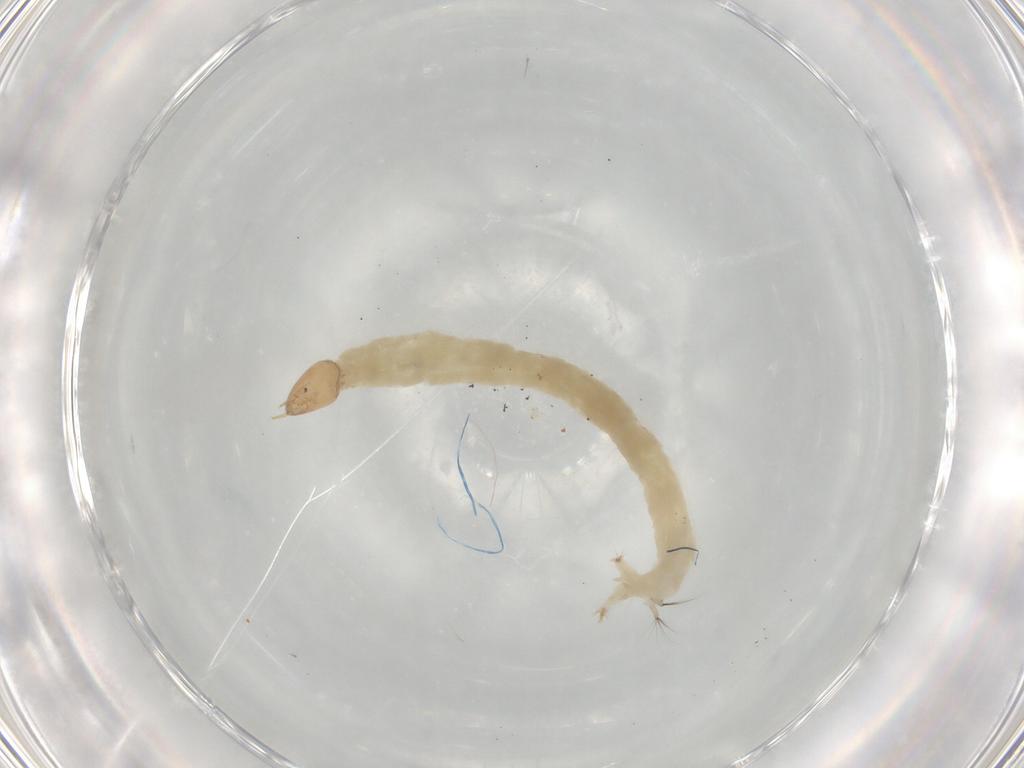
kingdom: Animalia
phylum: Arthropoda
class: Insecta
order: Diptera
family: Chironomidae
